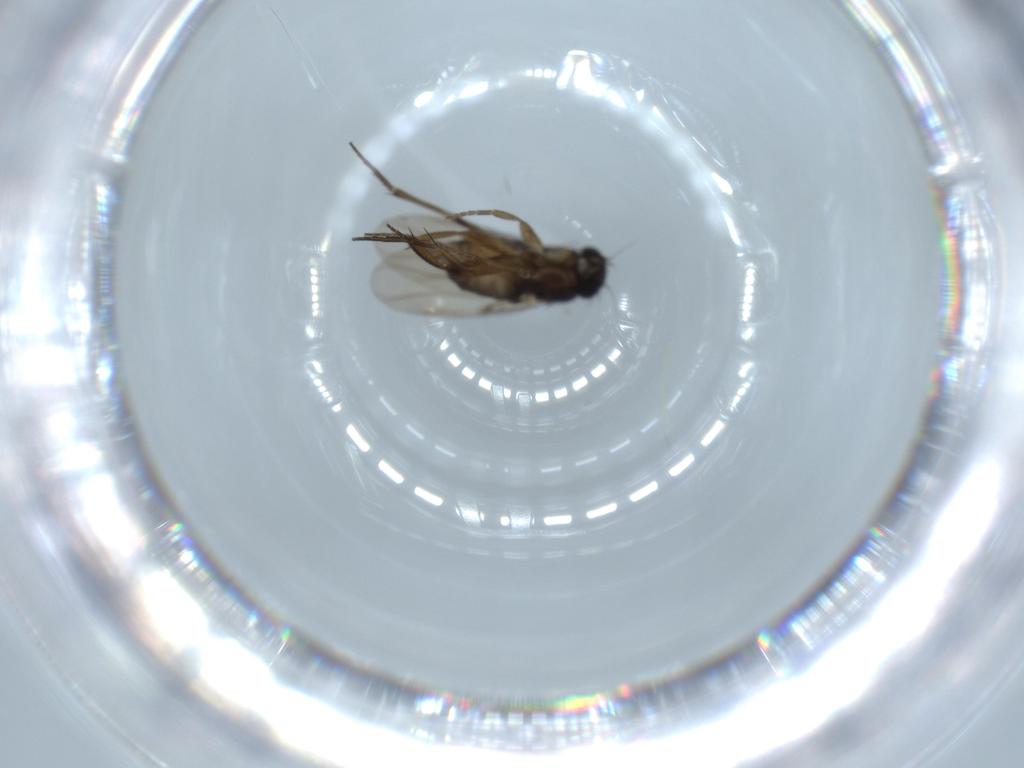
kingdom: Animalia
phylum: Arthropoda
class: Insecta
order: Diptera
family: Phoridae
